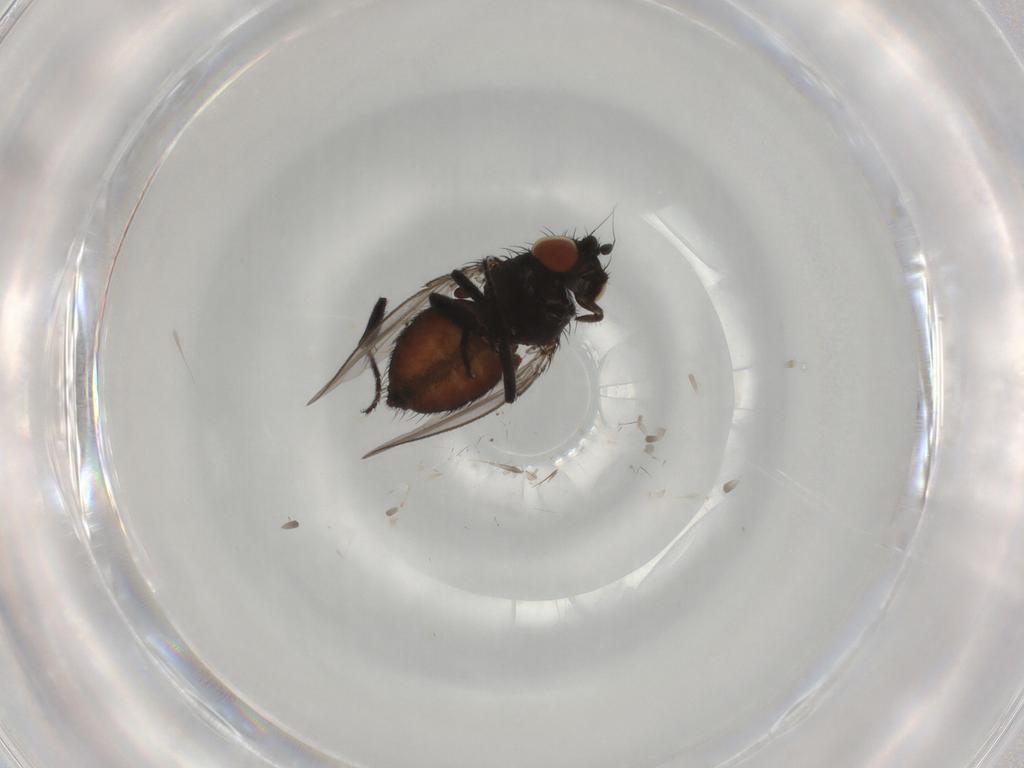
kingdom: Animalia
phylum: Arthropoda
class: Insecta
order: Diptera
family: Milichiidae
